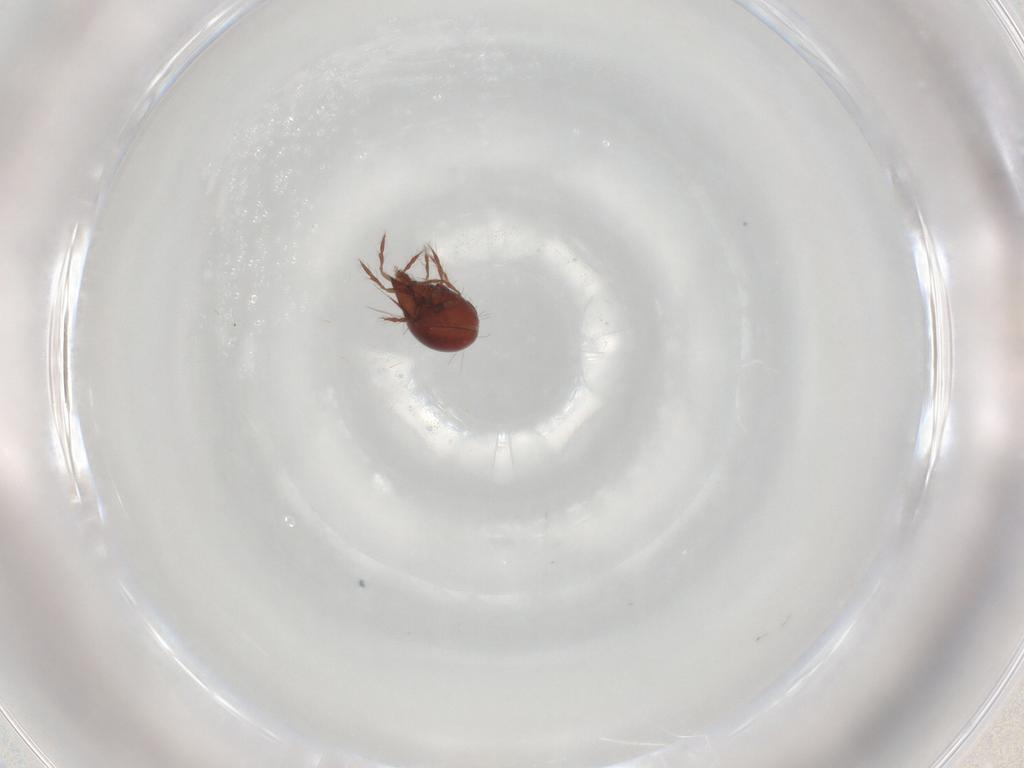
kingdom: Animalia
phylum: Arthropoda
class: Arachnida
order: Sarcoptiformes
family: Ceratoppiidae
